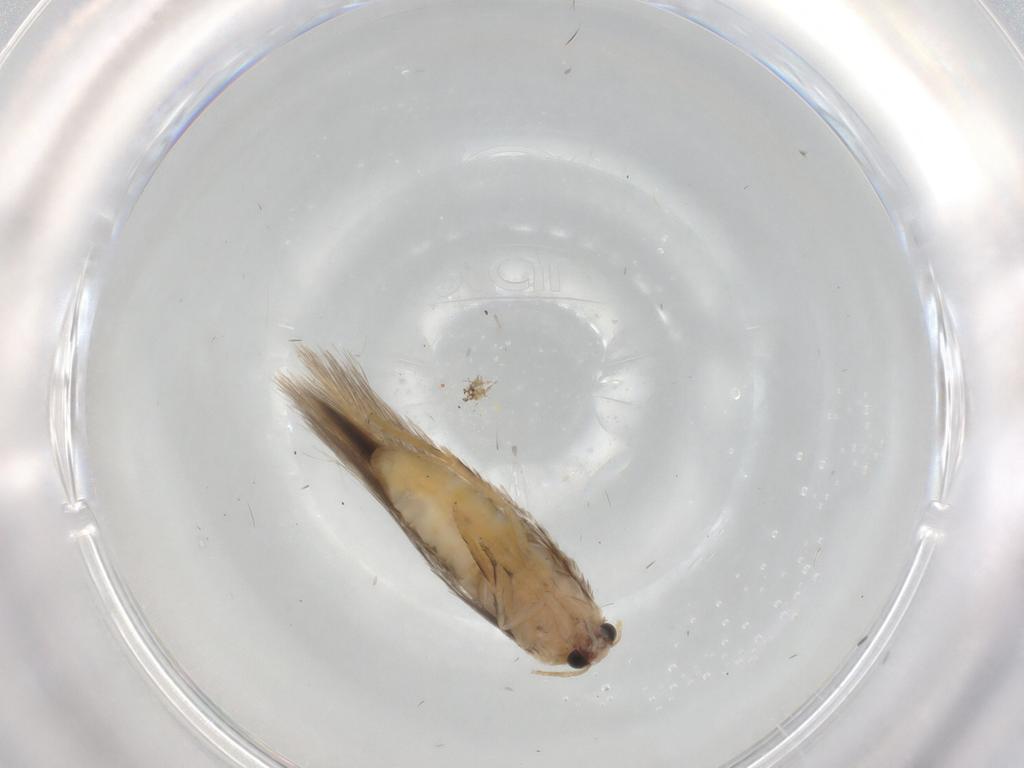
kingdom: Animalia
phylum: Arthropoda
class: Insecta
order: Lepidoptera
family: Nepticulidae
